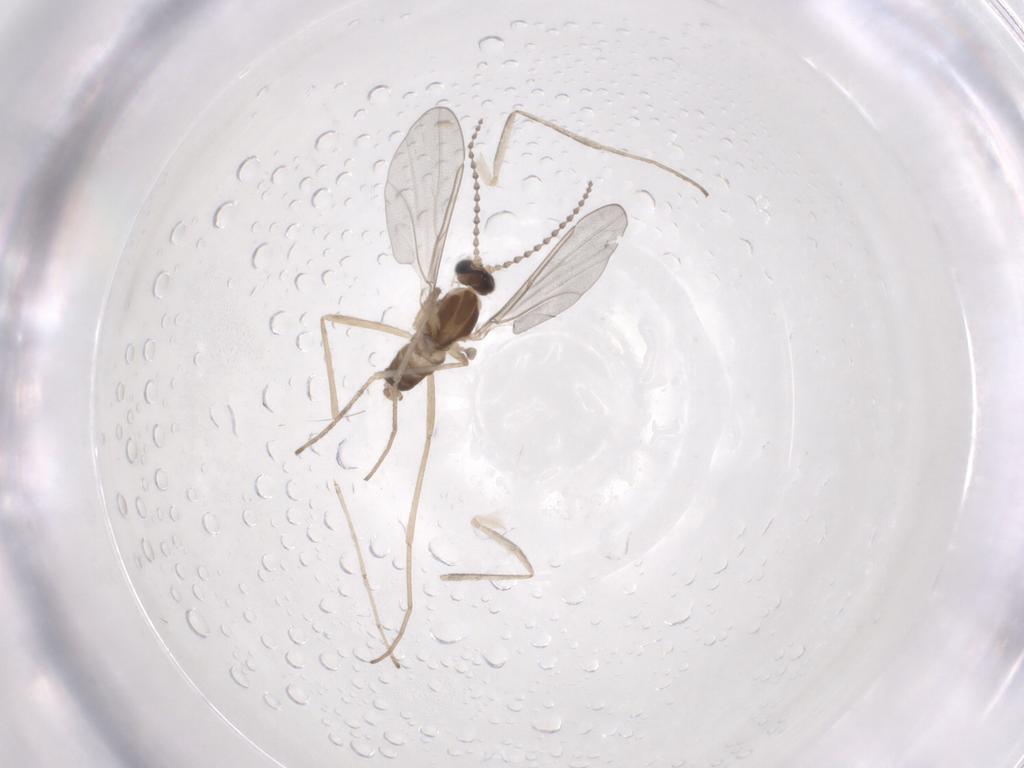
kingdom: Animalia
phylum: Arthropoda
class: Insecta
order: Diptera
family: Cecidomyiidae
